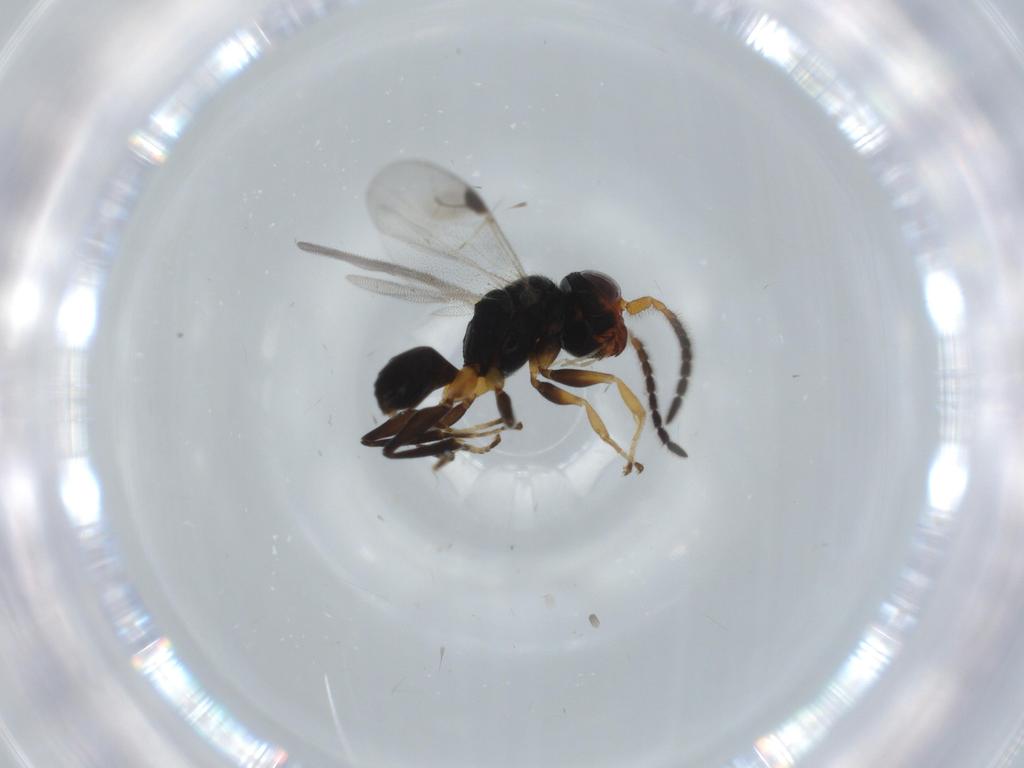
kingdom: Animalia
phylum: Arthropoda
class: Insecta
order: Hymenoptera
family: Dryinidae
